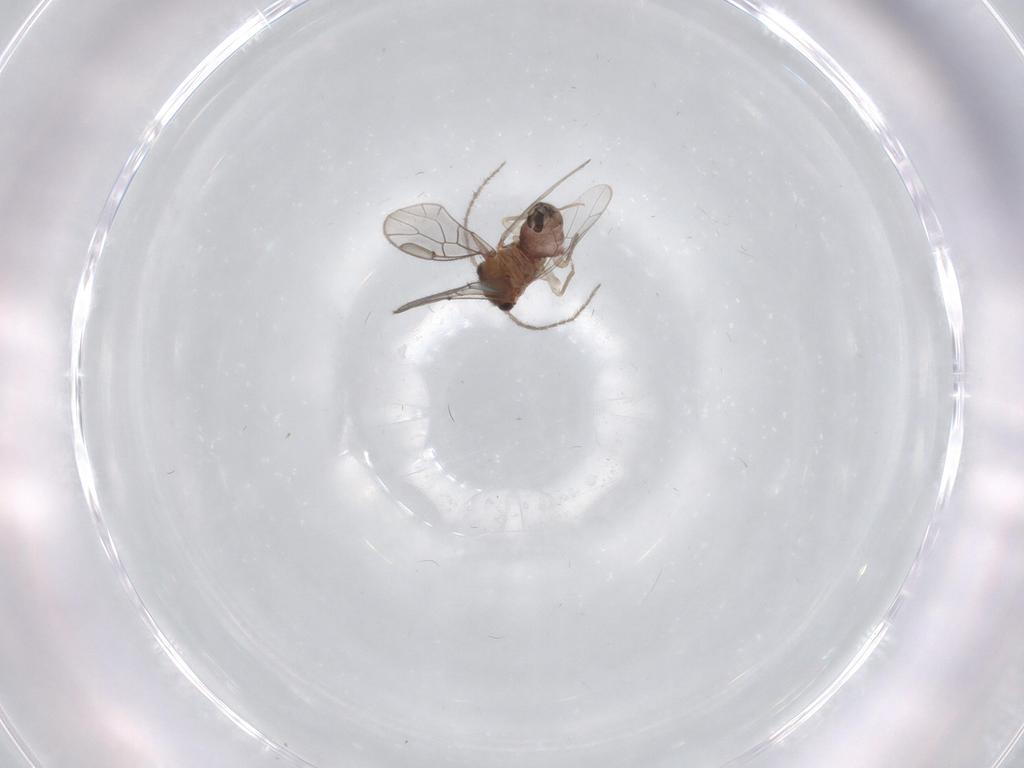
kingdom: Animalia
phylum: Arthropoda
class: Insecta
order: Psocodea
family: Ectopsocidae
